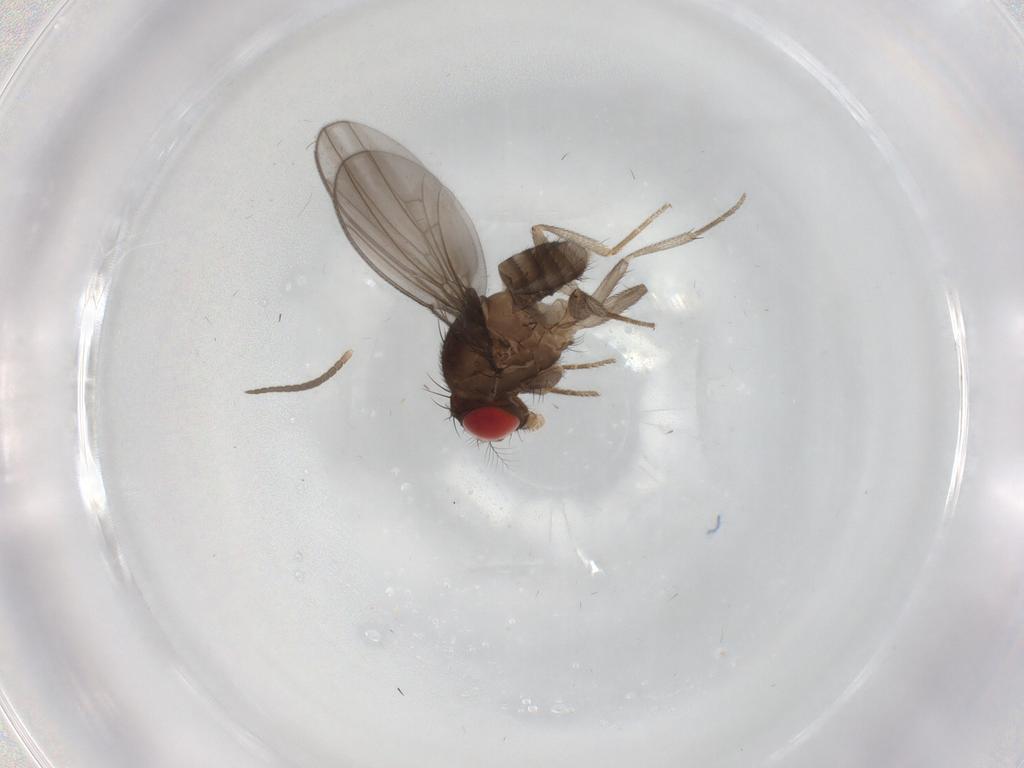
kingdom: Animalia
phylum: Arthropoda
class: Insecta
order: Diptera
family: Drosophilidae
